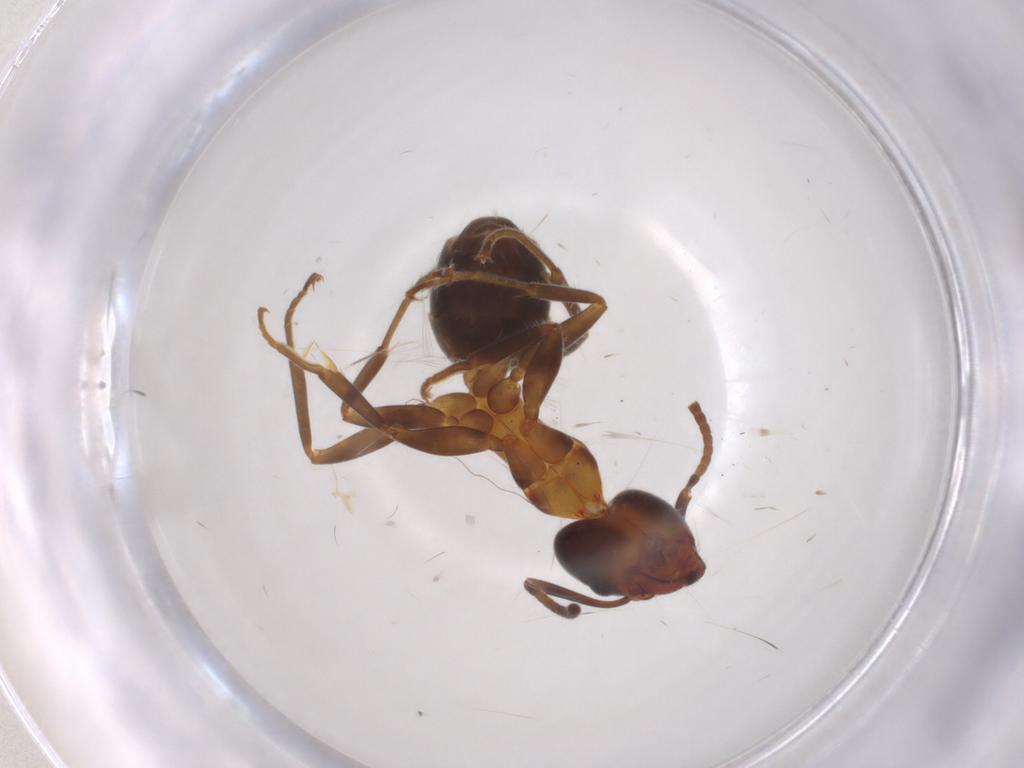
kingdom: Animalia
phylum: Arthropoda
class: Insecta
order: Hymenoptera
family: Formicidae
